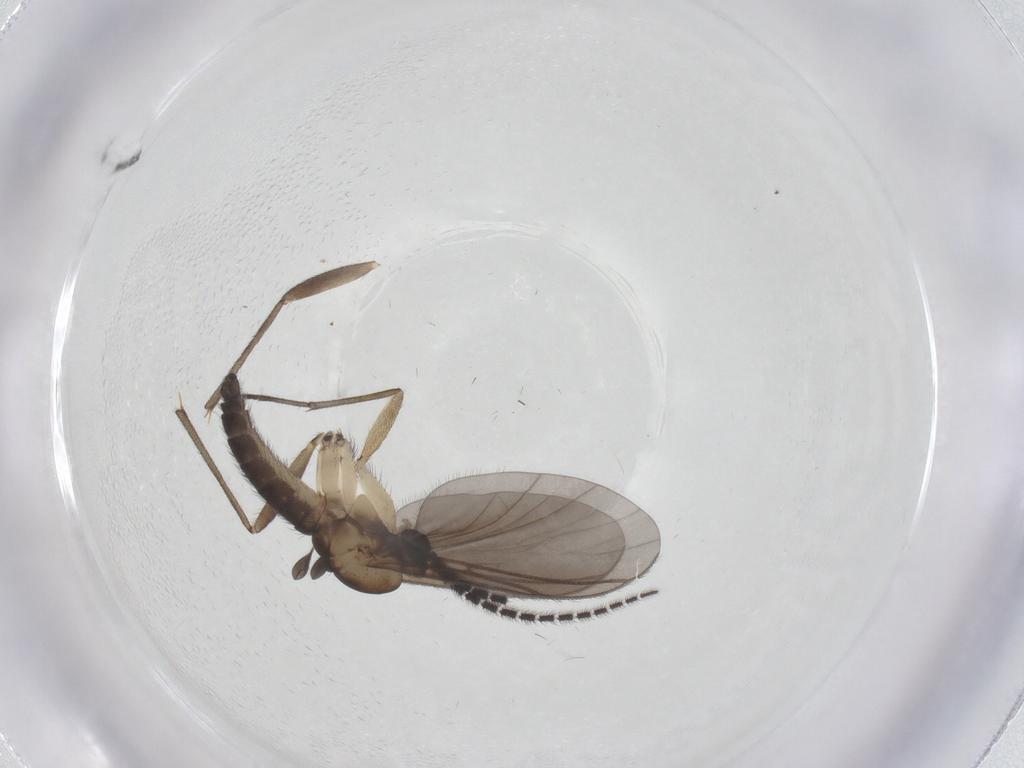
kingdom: Animalia
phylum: Arthropoda
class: Insecta
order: Diptera
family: Sciaridae
